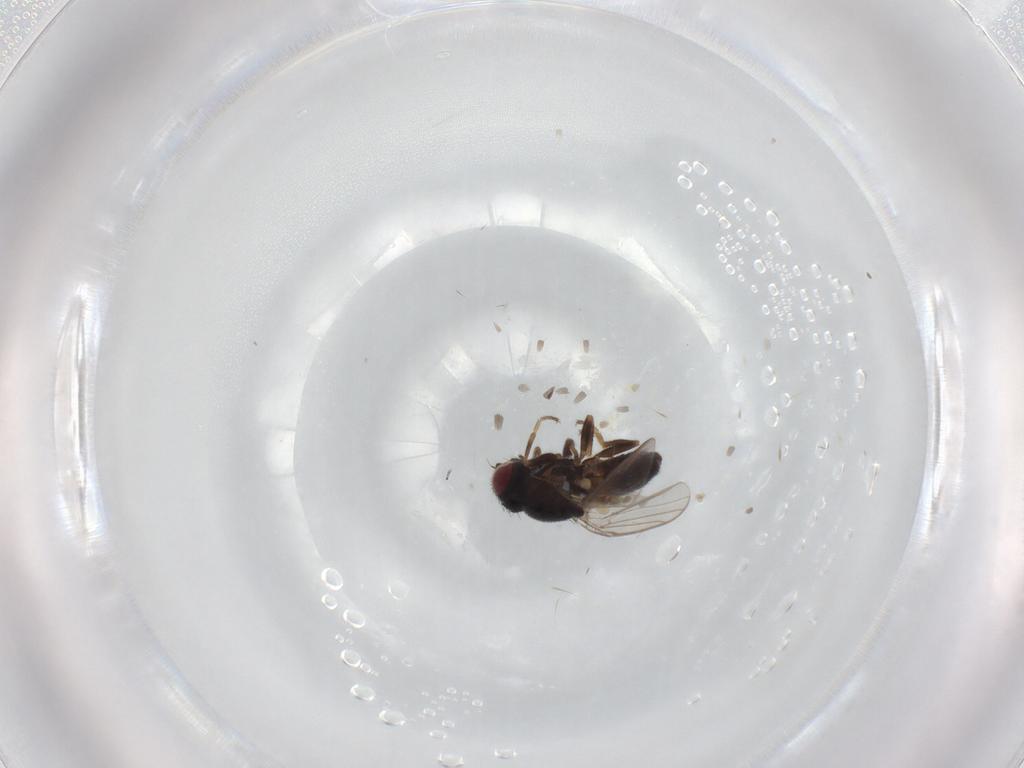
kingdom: Animalia
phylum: Arthropoda
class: Insecta
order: Diptera
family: Chloropidae
